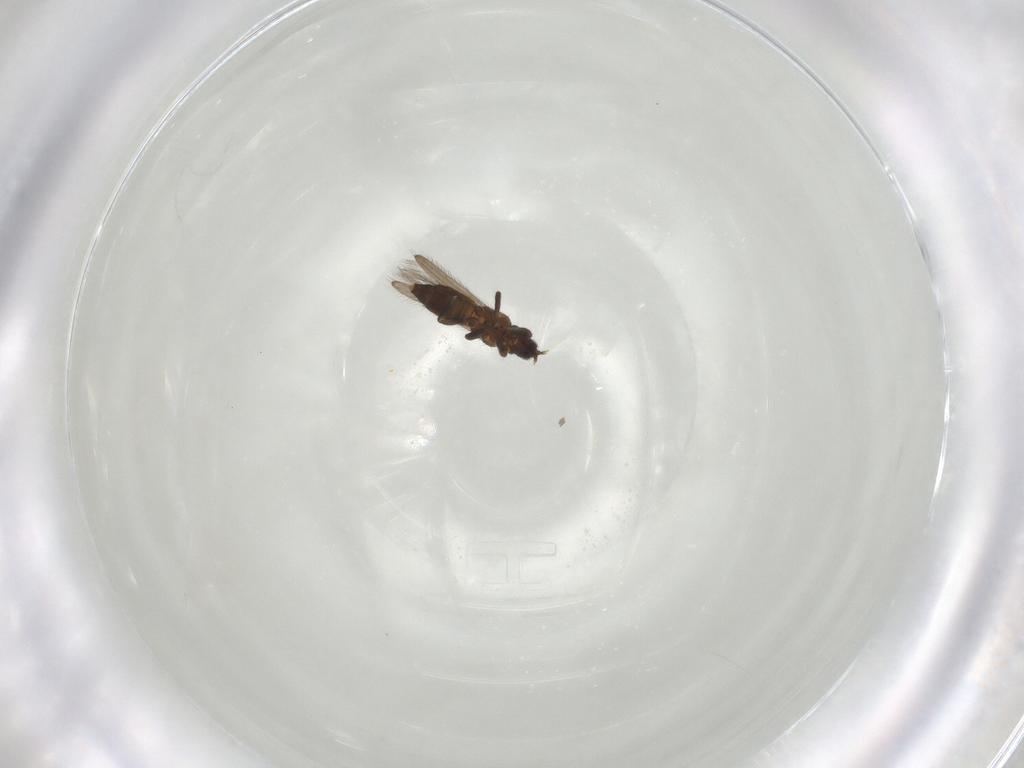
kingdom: Animalia
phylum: Arthropoda
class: Insecta
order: Thysanoptera
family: Melanthripidae
